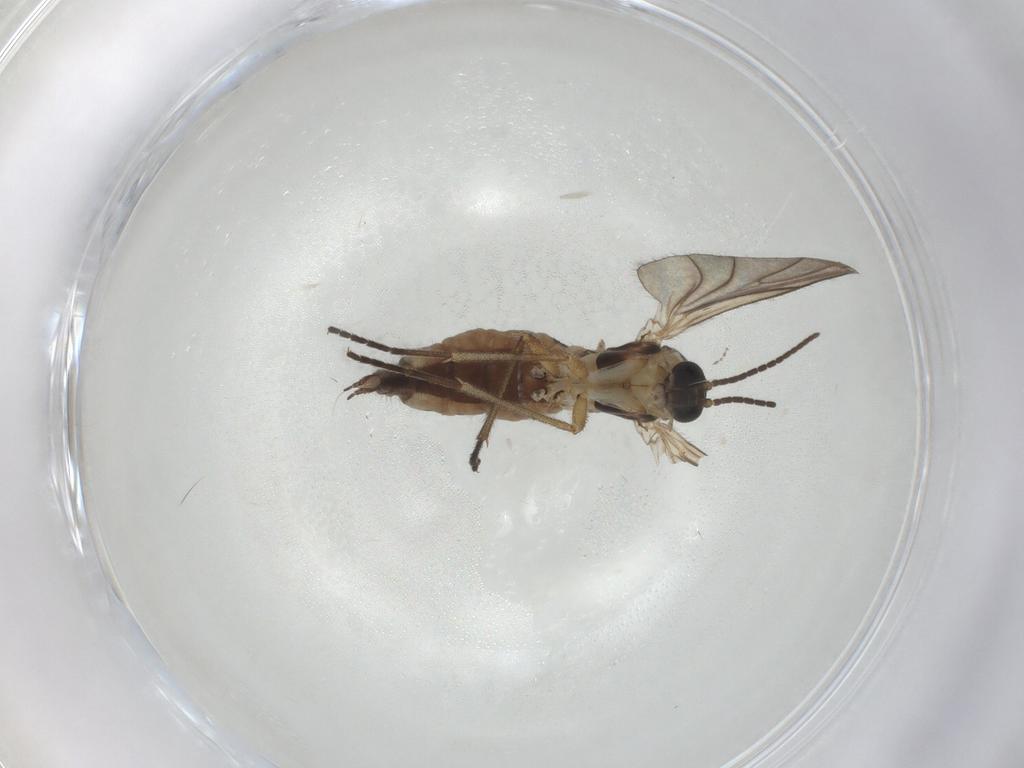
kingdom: Animalia
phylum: Arthropoda
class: Insecta
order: Diptera
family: Sciaridae
